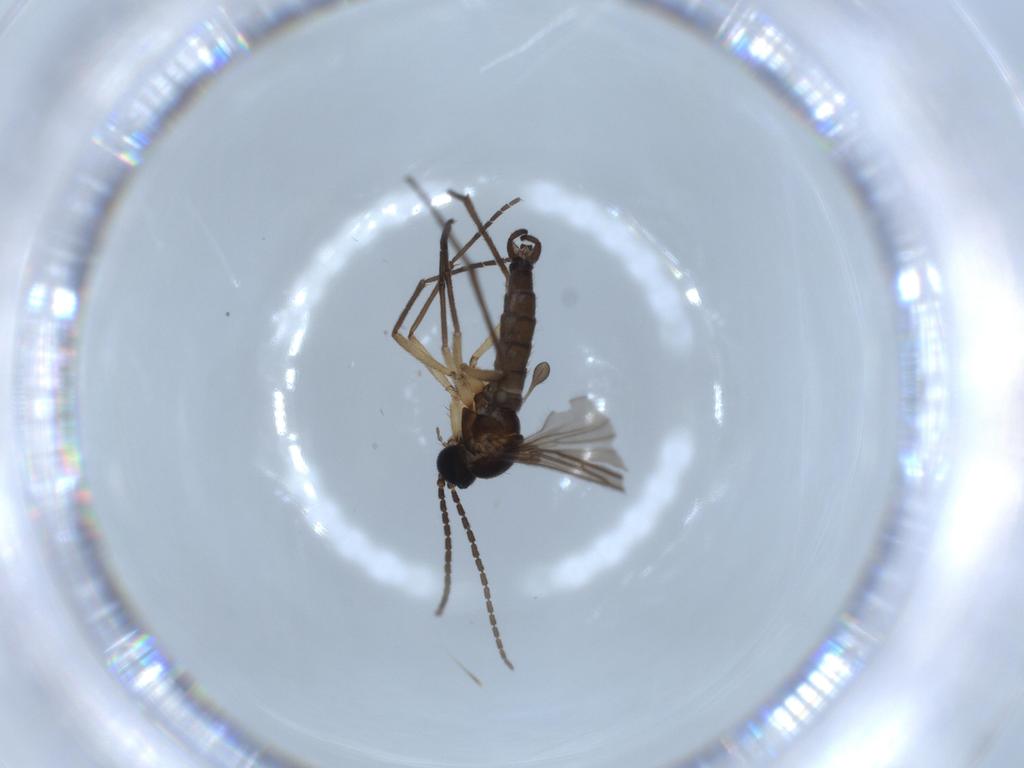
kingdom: Animalia
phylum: Arthropoda
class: Insecta
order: Diptera
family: Sciaridae
